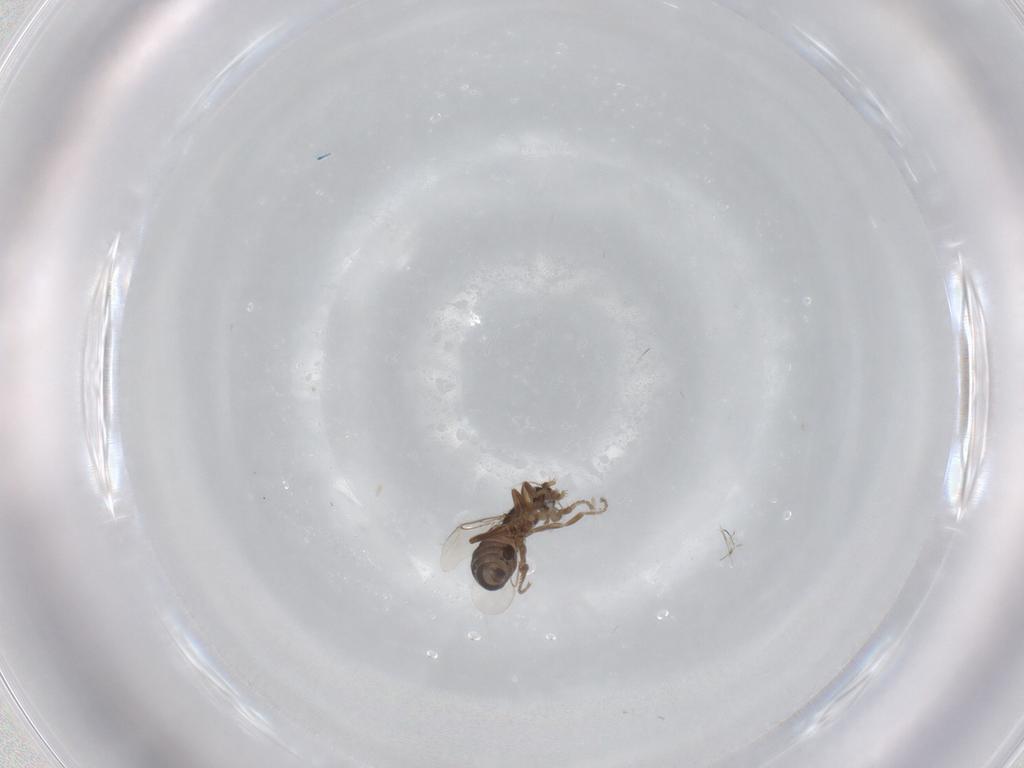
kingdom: Animalia
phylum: Arthropoda
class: Insecta
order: Diptera
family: Phoridae
